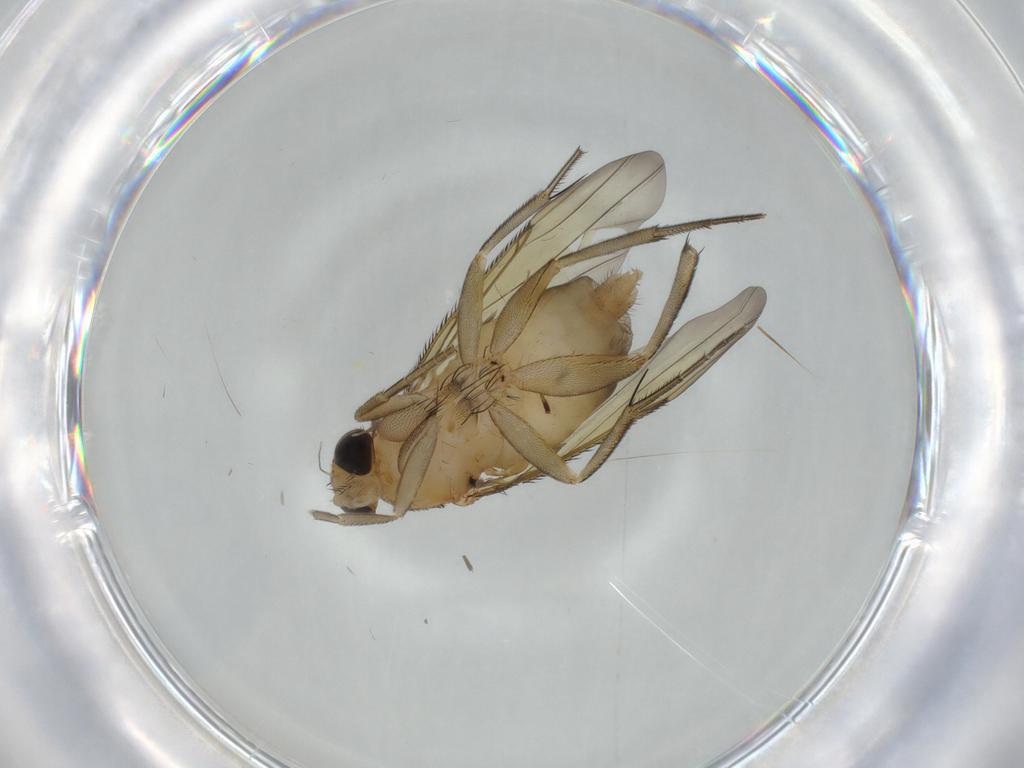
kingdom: Animalia
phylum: Arthropoda
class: Insecta
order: Diptera
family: Phoridae
